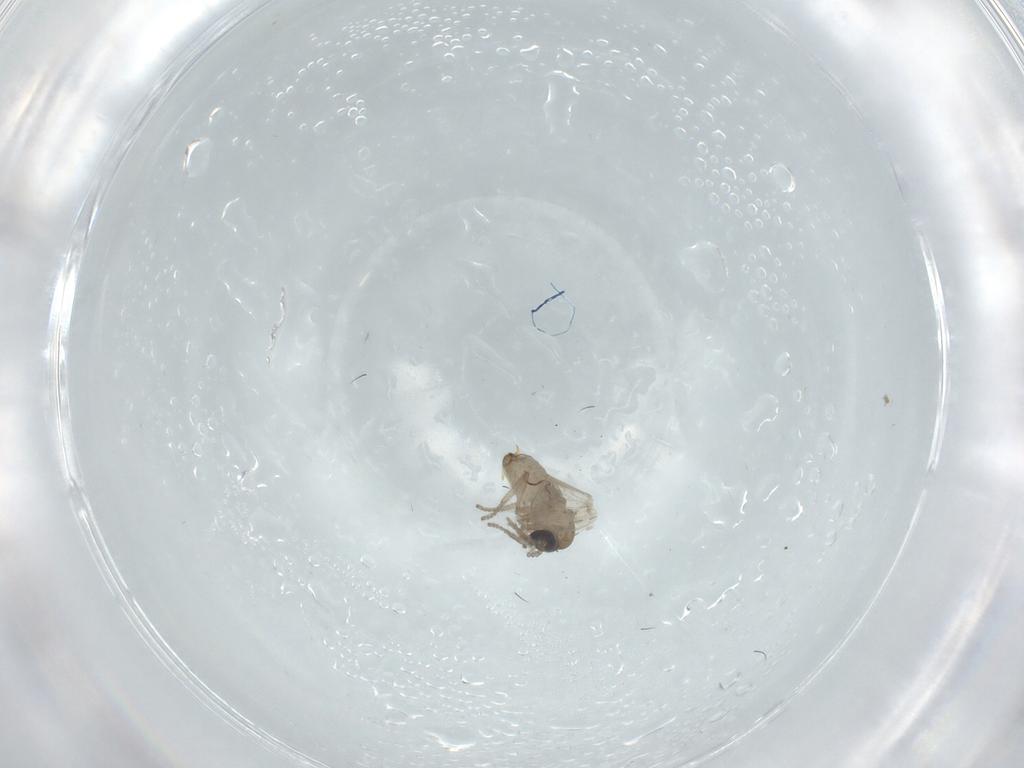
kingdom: Animalia
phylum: Arthropoda
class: Insecta
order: Diptera
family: Psychodidae
